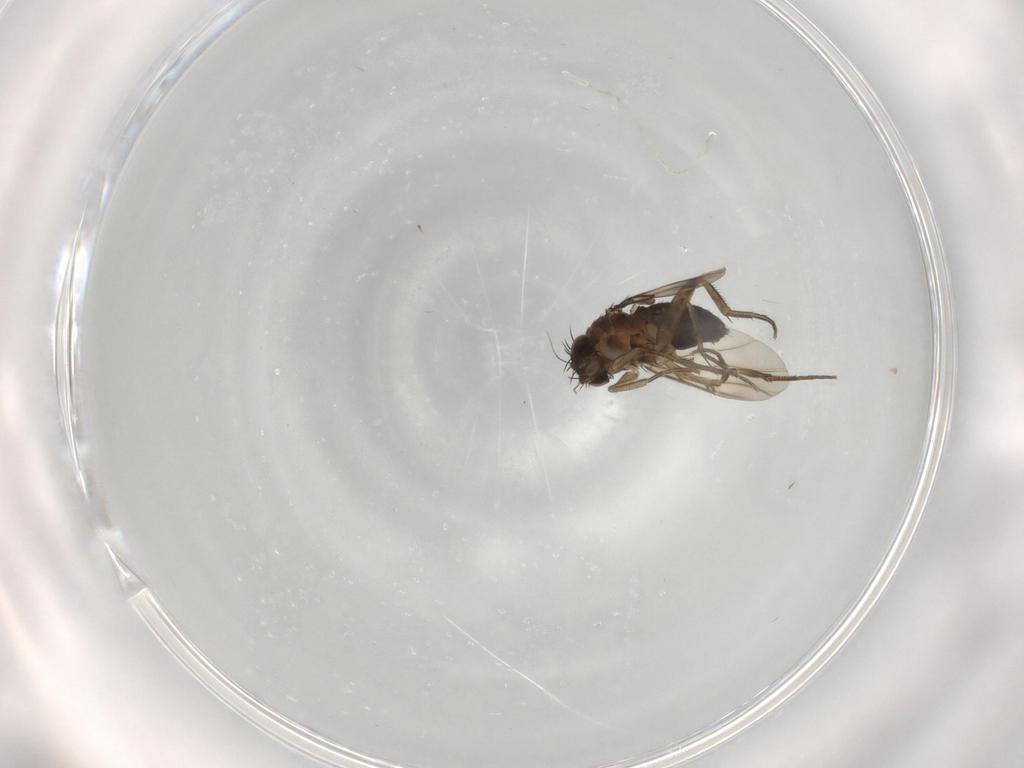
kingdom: Animalia
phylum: Arthropoda
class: Insecta
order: Diptera
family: Phoridae
